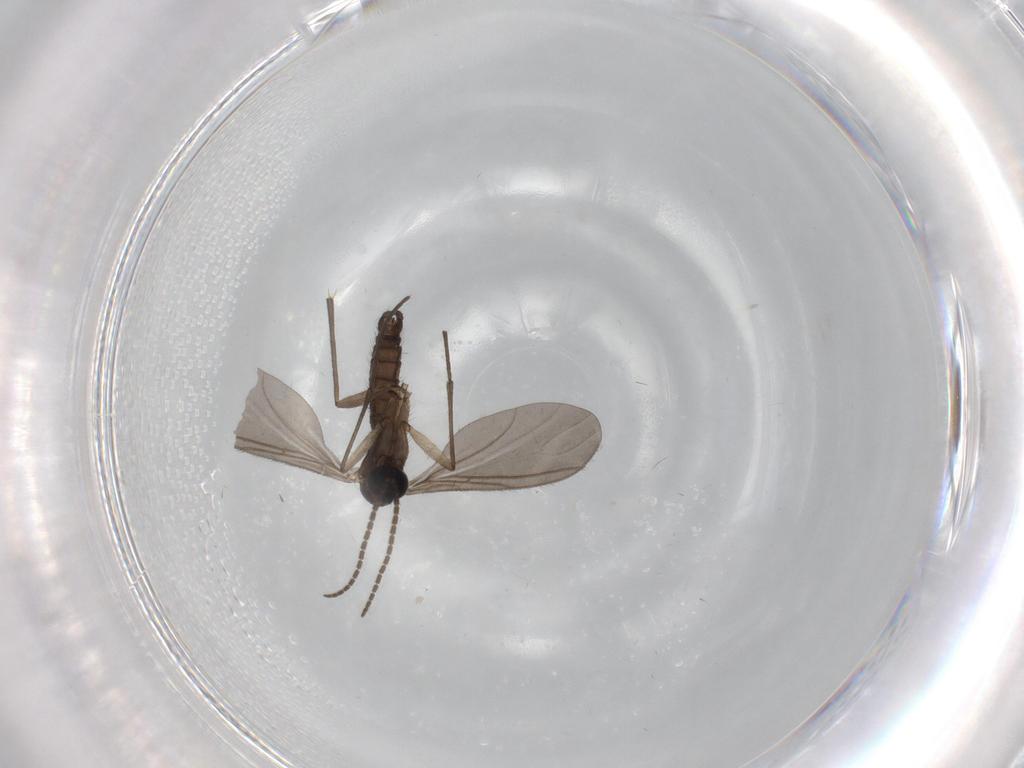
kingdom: Animalia
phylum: Arthropoda
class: Insecta
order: Diptera
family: Sciaridae
